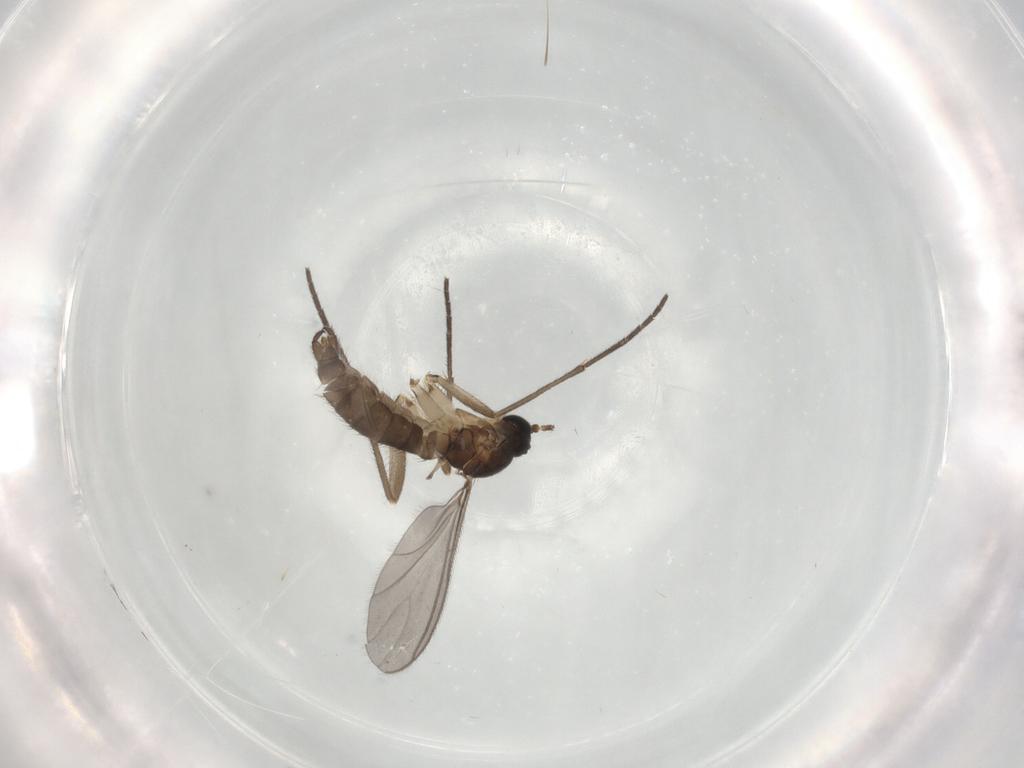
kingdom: Animalia
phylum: Arthropoda
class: Insecta
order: Diptera
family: Sciaridae
